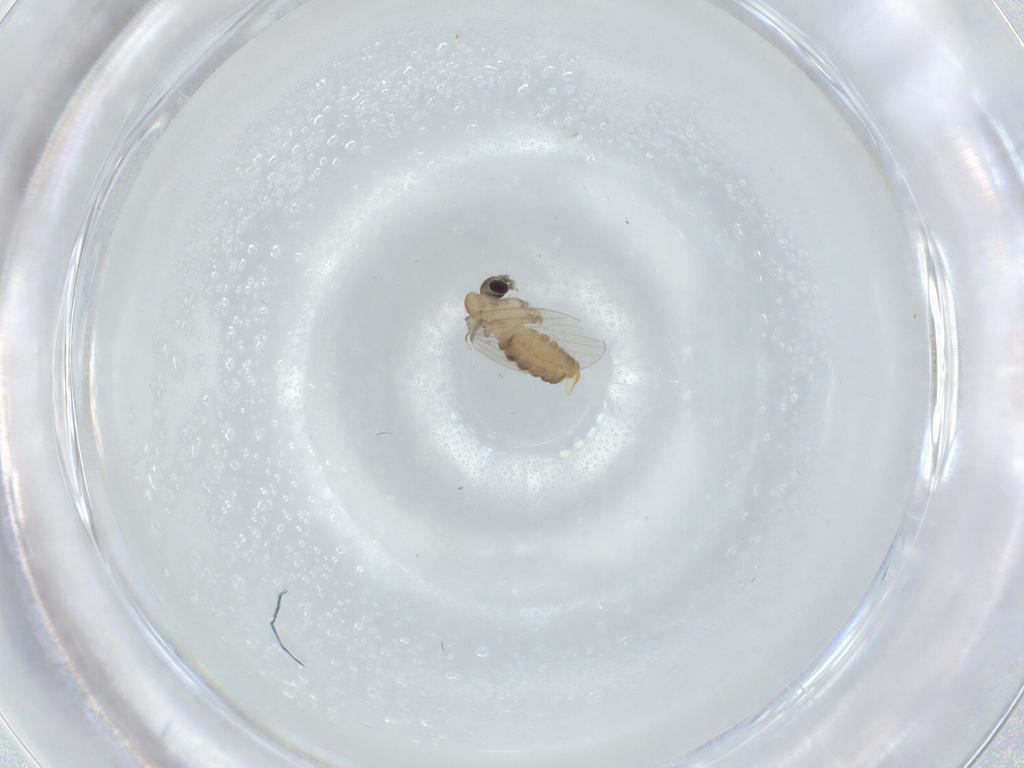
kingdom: Animalia
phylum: Arthropoda
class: Insecta
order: Diptera
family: Psychodidae
